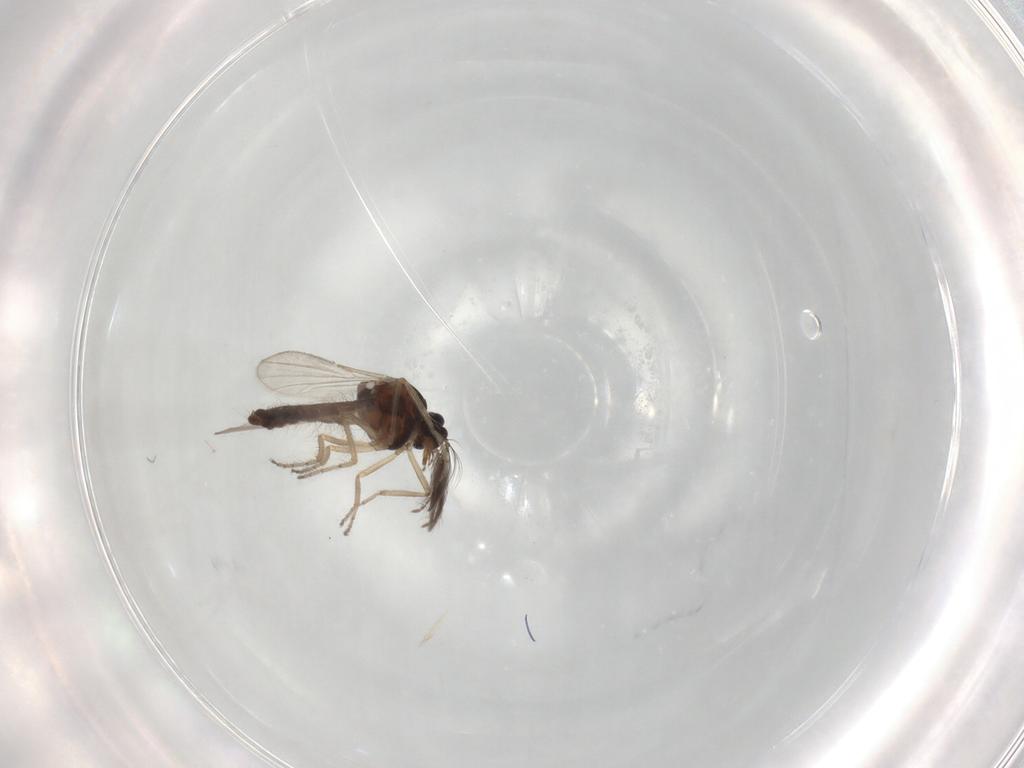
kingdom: Animalia
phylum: Arthropoda
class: Insecta
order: Diptera
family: Ceratopogonidae
